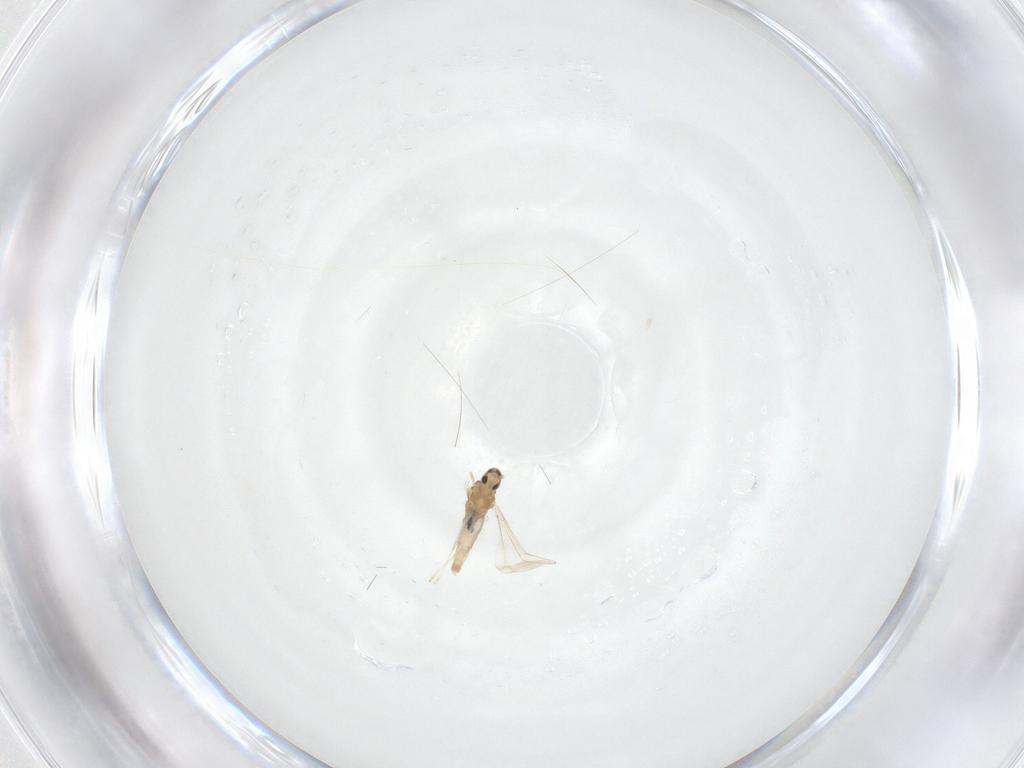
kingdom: Animalia
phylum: Arthropoda
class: Insecta
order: Diptera
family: Cecidomyiidae
